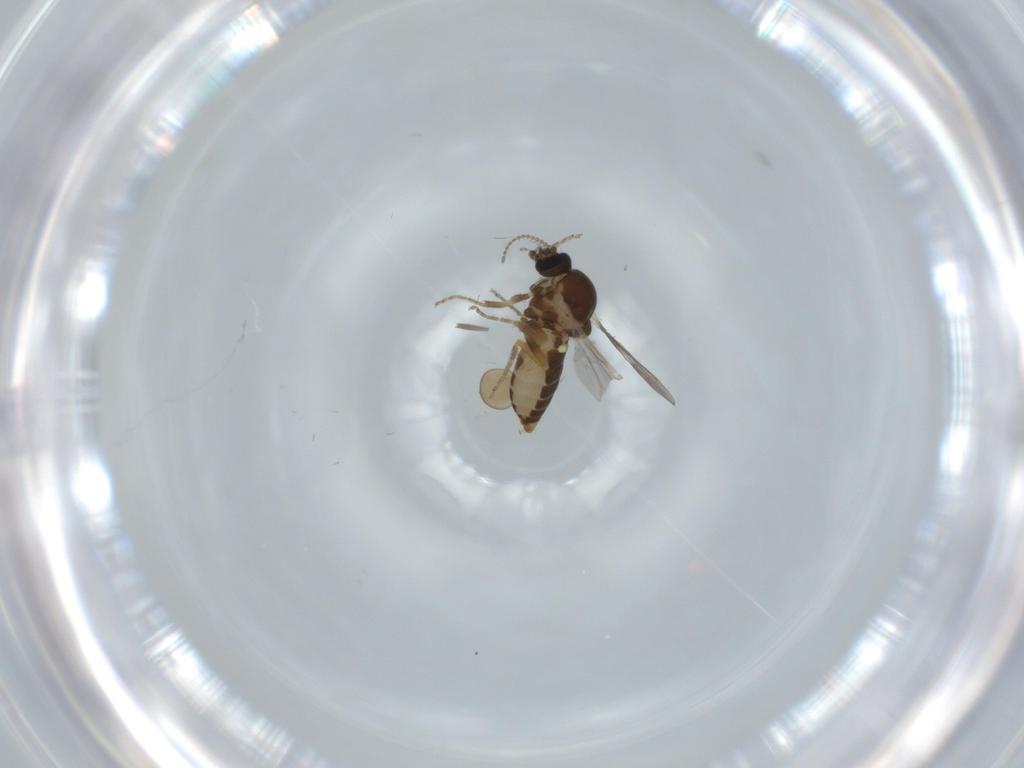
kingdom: Animalia
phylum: Arthropoda
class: Insecta
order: Diptera
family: Ceratopogonidae
